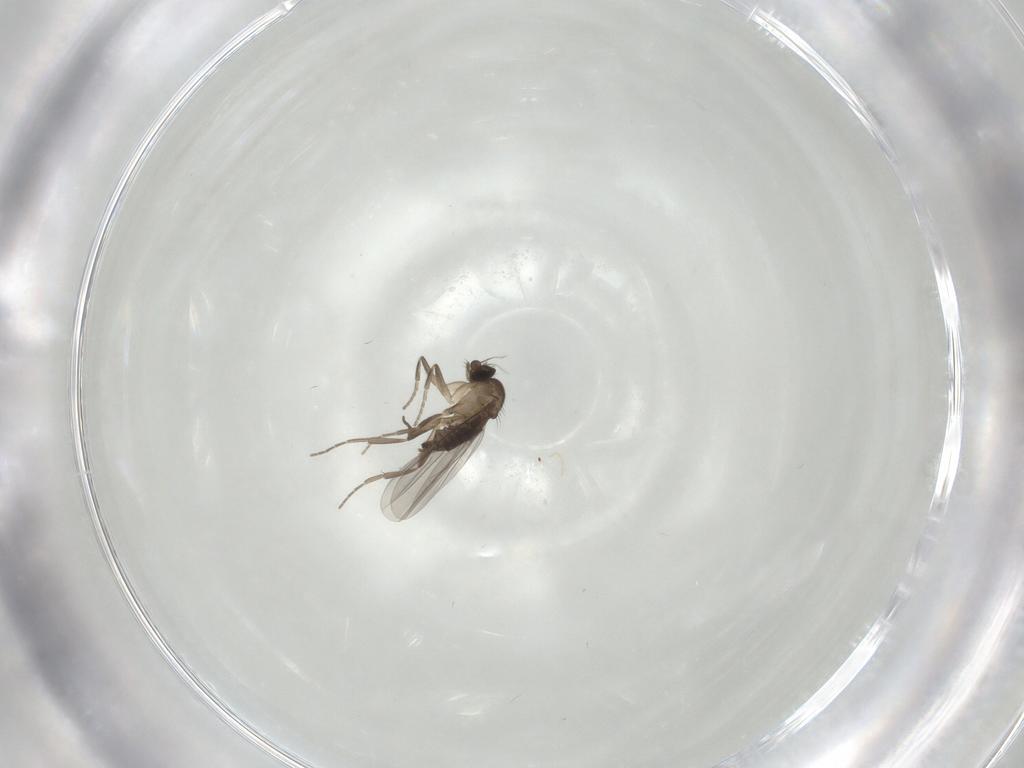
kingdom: Animalia
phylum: Arthropoda
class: Insecta
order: Diptera
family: Phoridae
